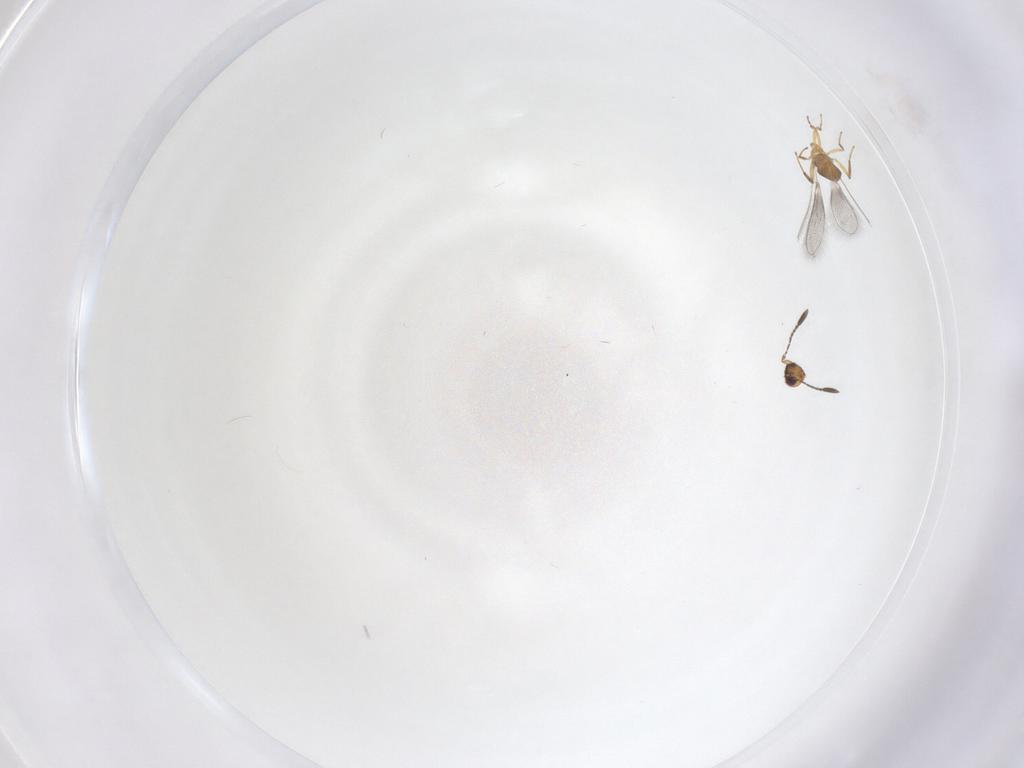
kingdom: Animalia
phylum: Arthropoda
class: Insecta
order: Hymenoptera
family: Mymaridae
